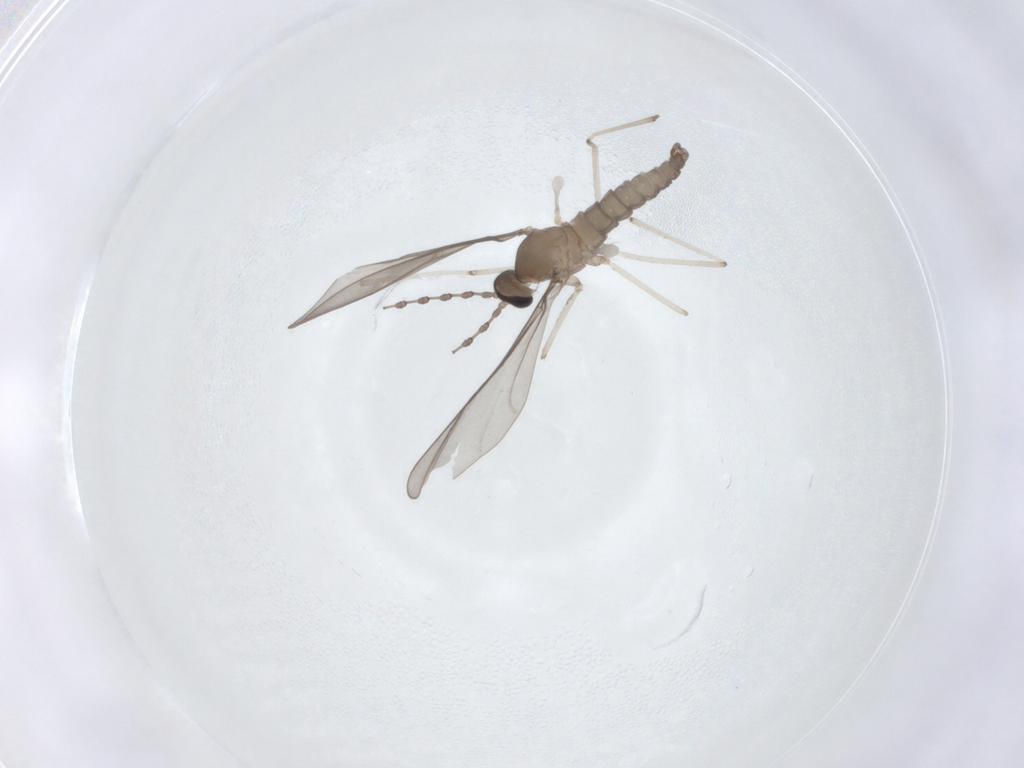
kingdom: Animalia
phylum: Arthropoda
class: Insecta
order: Diptera
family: Cecidomyiidae
